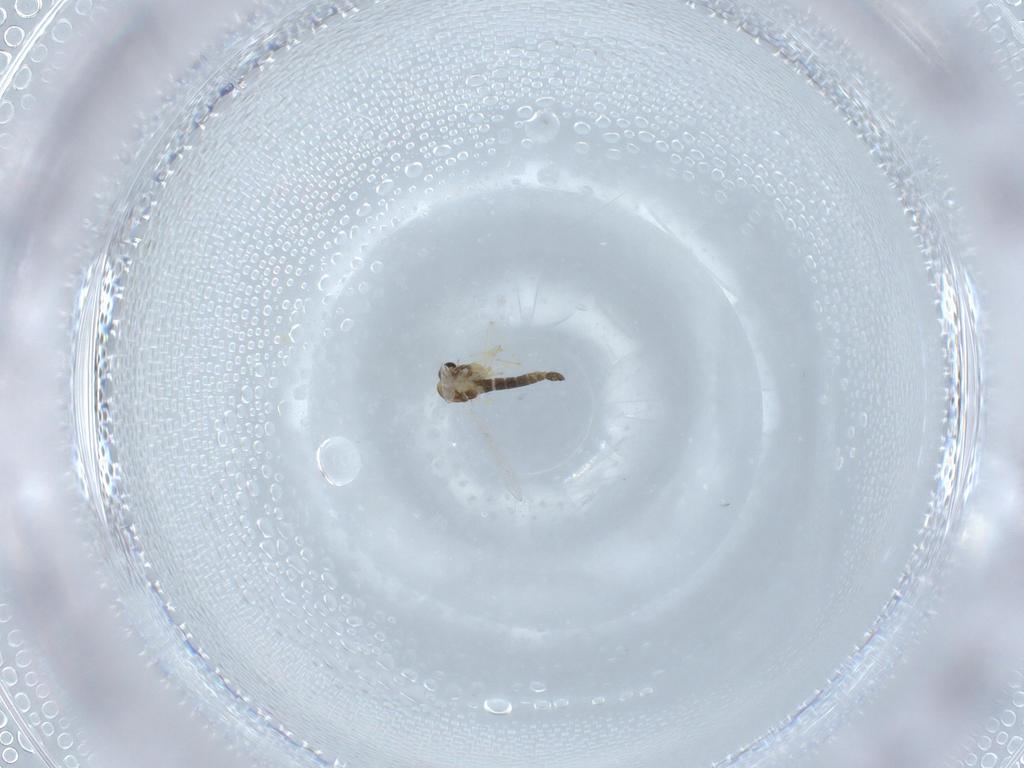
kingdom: Animalia
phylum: Arthropoda
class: Insecta
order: Diptera
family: Chironomidae
